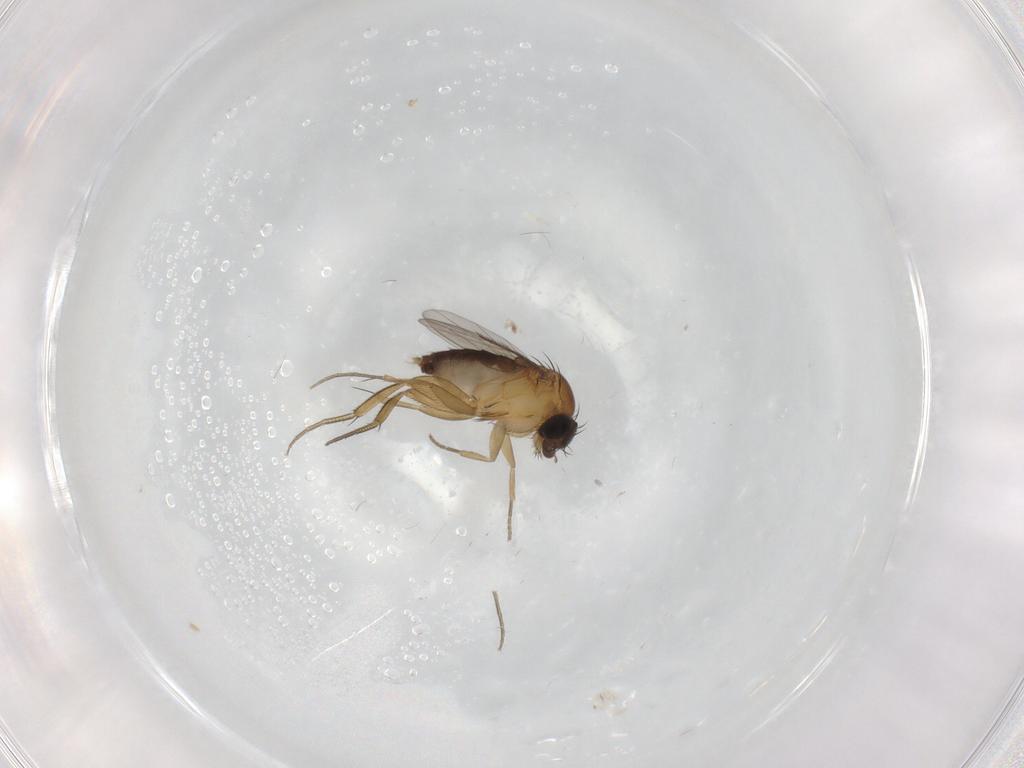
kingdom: Animalia
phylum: Arthropoda
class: Insecta
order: Diptera
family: Phoridae
